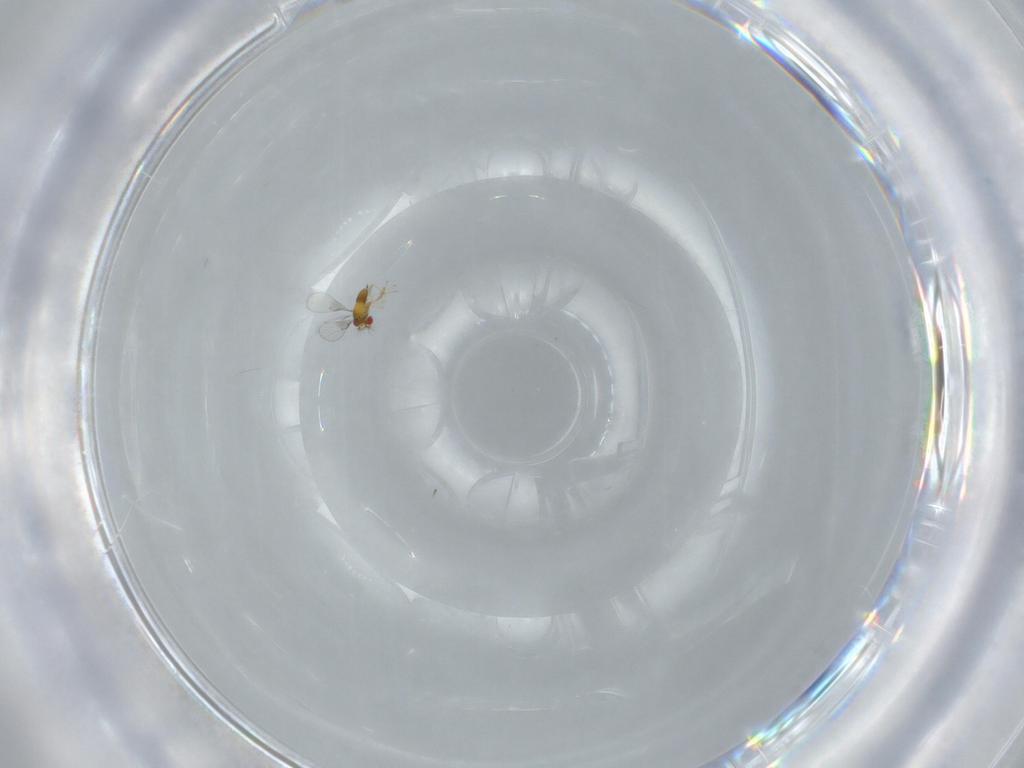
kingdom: Animalia
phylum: Arthropoda
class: Insecta
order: Hymenoptera
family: Trichogrammatidae
